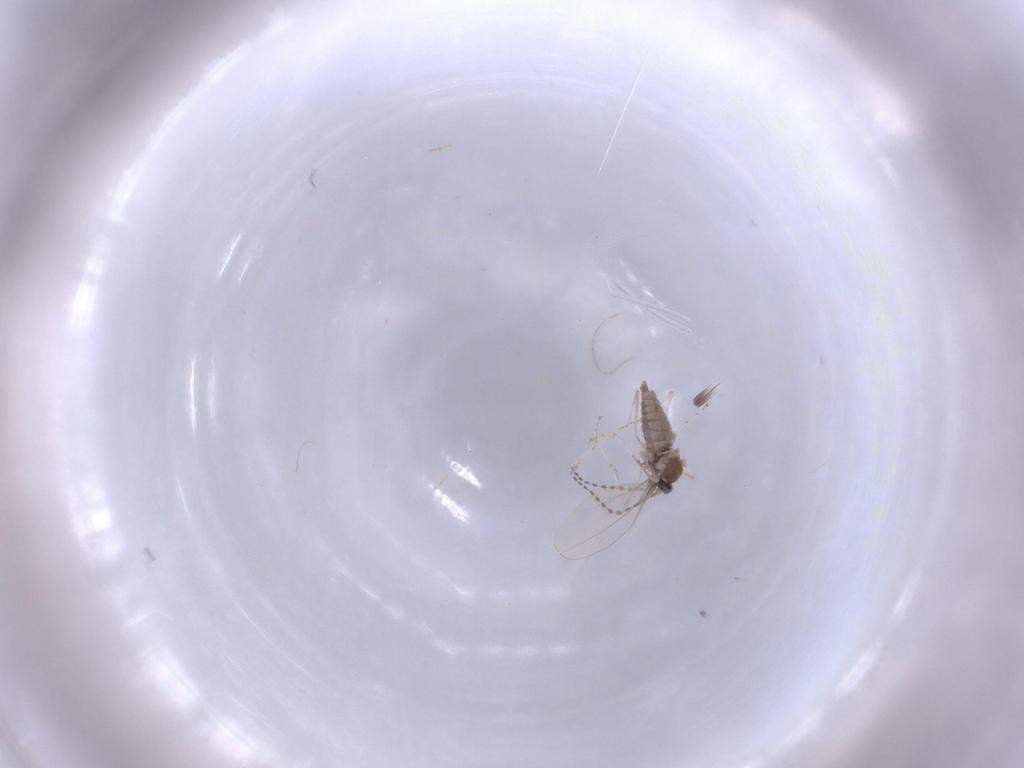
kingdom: Animalia
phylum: Arthropoda
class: Insecta
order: Diptera
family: Cecidomyiidae
